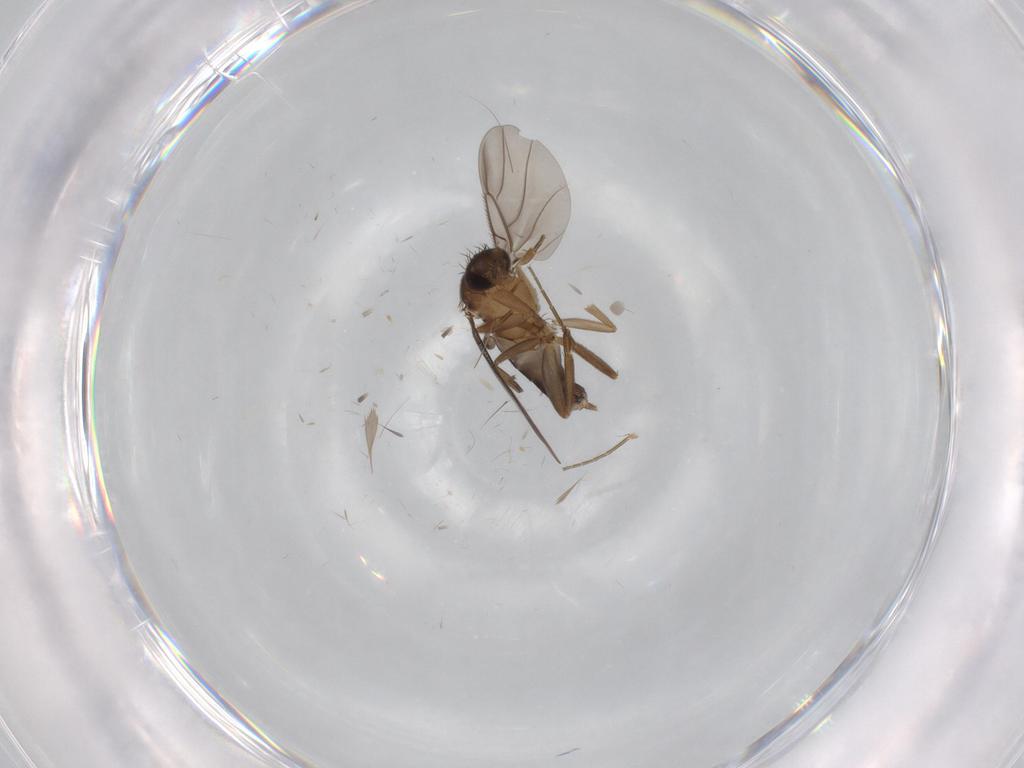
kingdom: Animalia
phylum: Arthropoda
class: Insecta
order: Diptera
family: Phoridae
